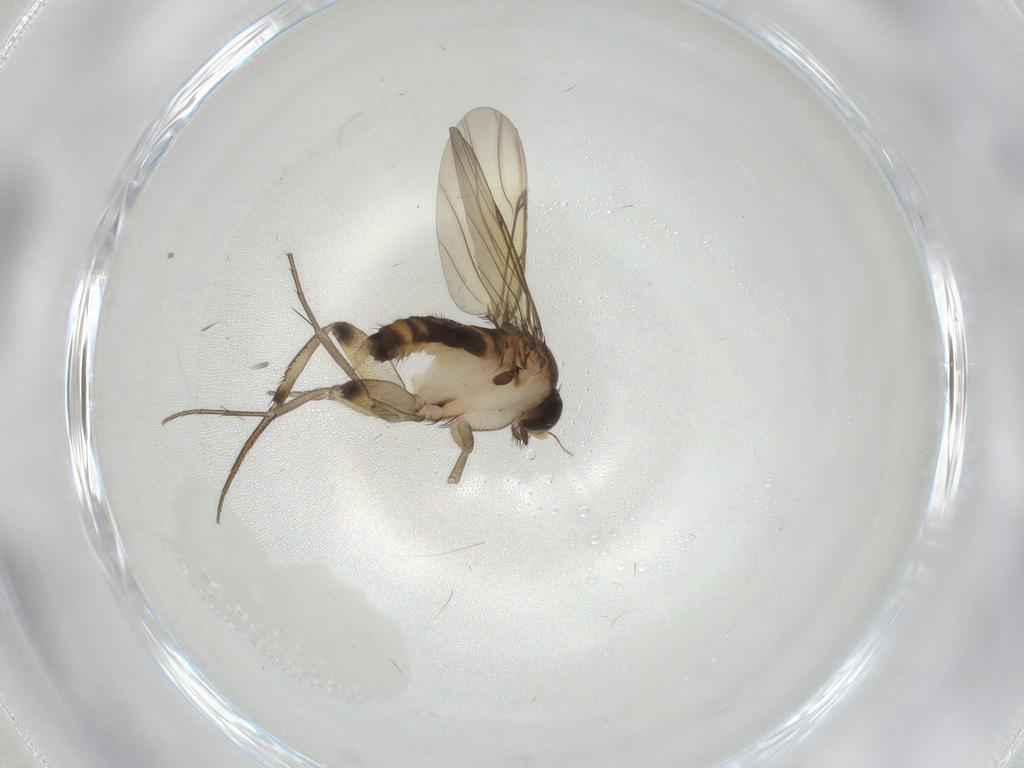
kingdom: Animalia
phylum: Arthropoda
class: Insecta
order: Diptera
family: Phoridae
